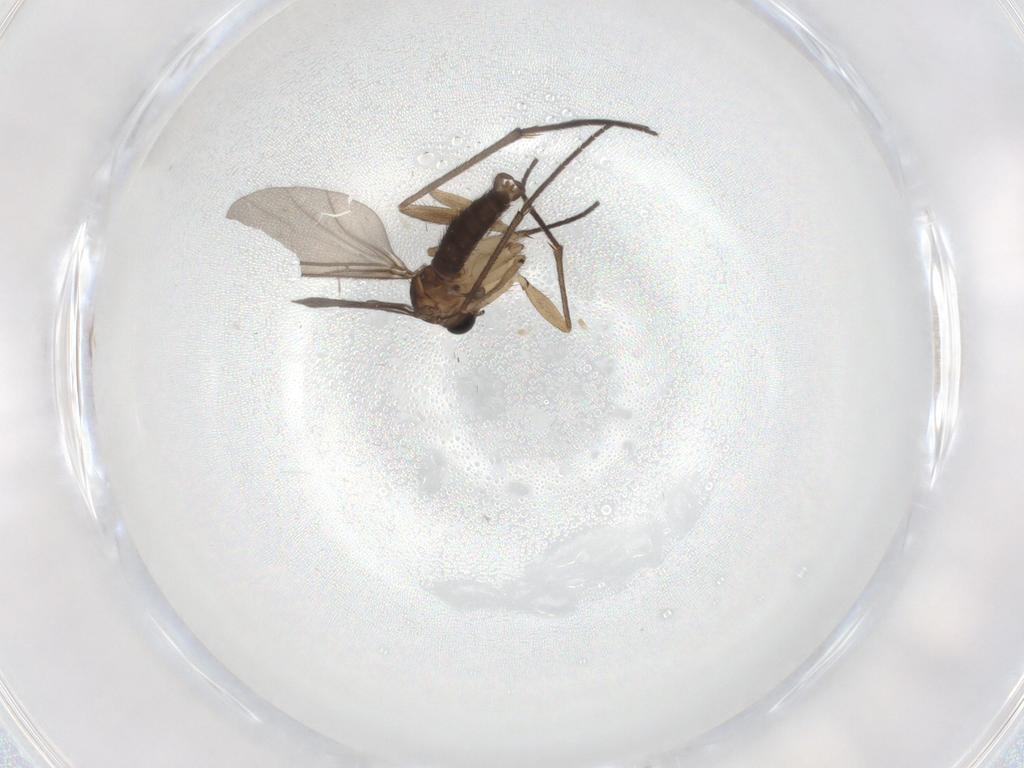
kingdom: Animalia
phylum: Arthropoda
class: Insecta
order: Diptera
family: Sciaridae
